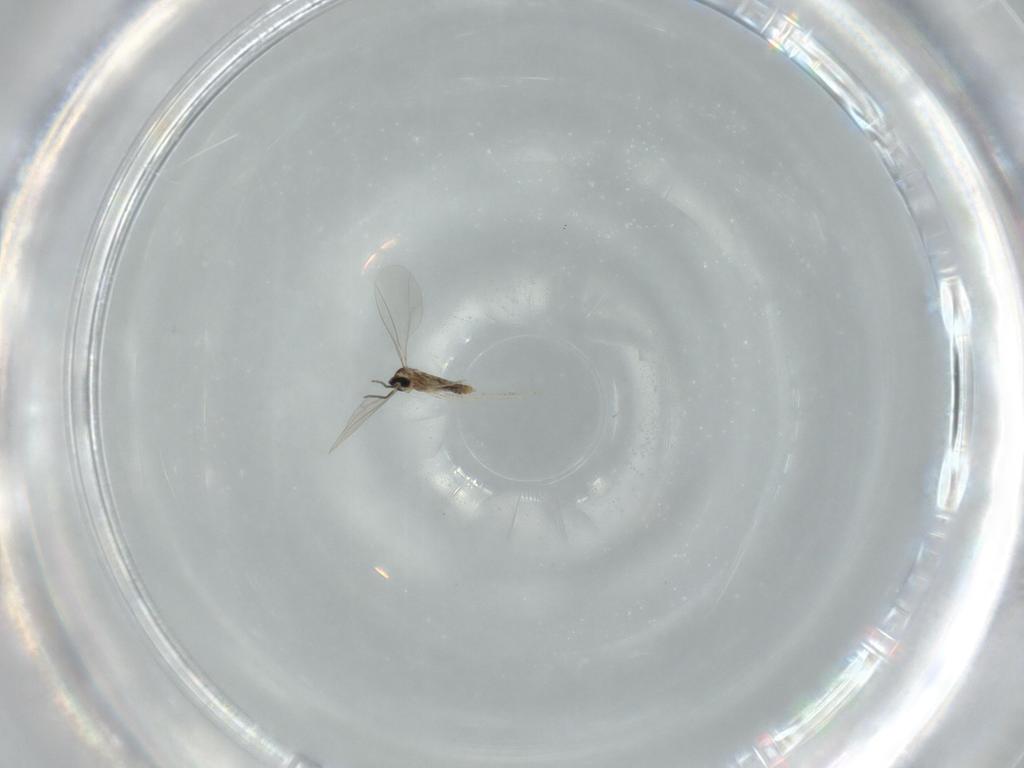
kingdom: Animalia
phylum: Arthropoda
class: Insecta
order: Diptera
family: Cecidomyiidae
